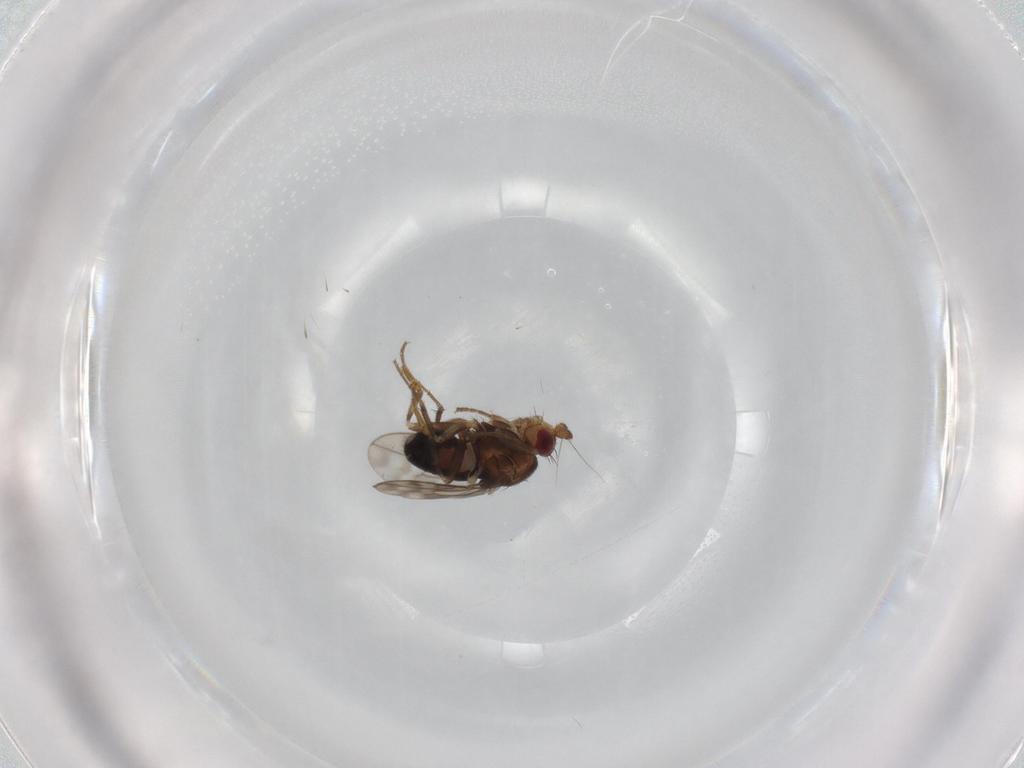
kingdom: Animalia
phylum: Arthropoda
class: Insecta
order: Diptera
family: Sphaeroceridae
